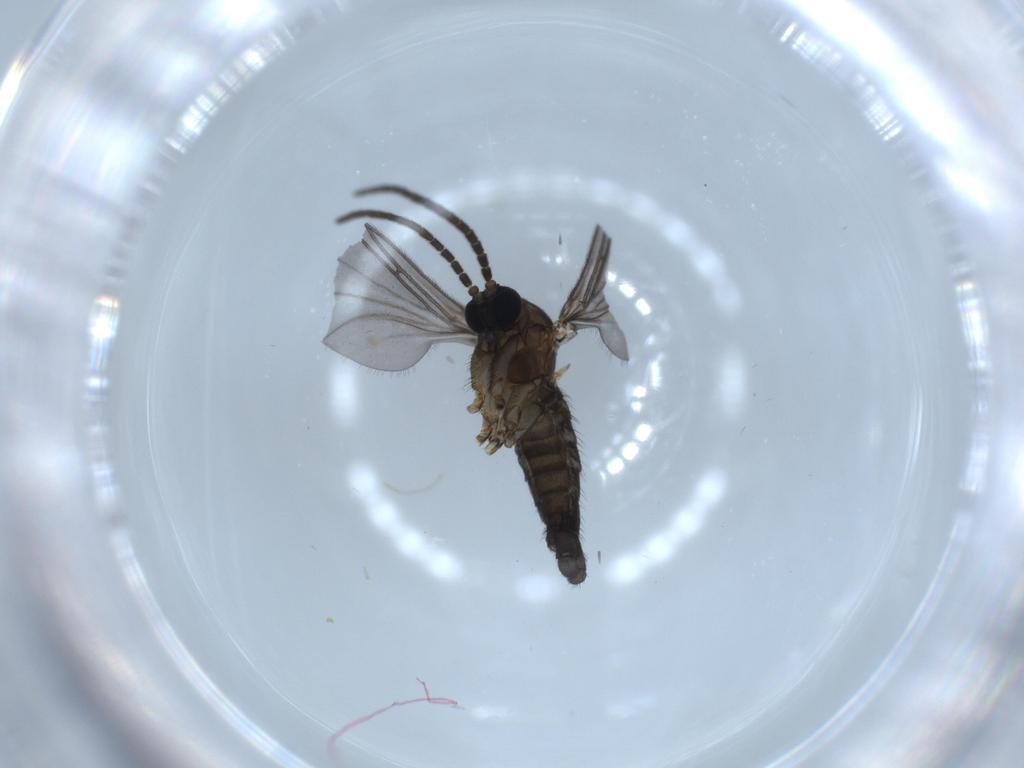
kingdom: Animalia
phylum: Arthropoda
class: Insecta
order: Diptera
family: Sciaridae
